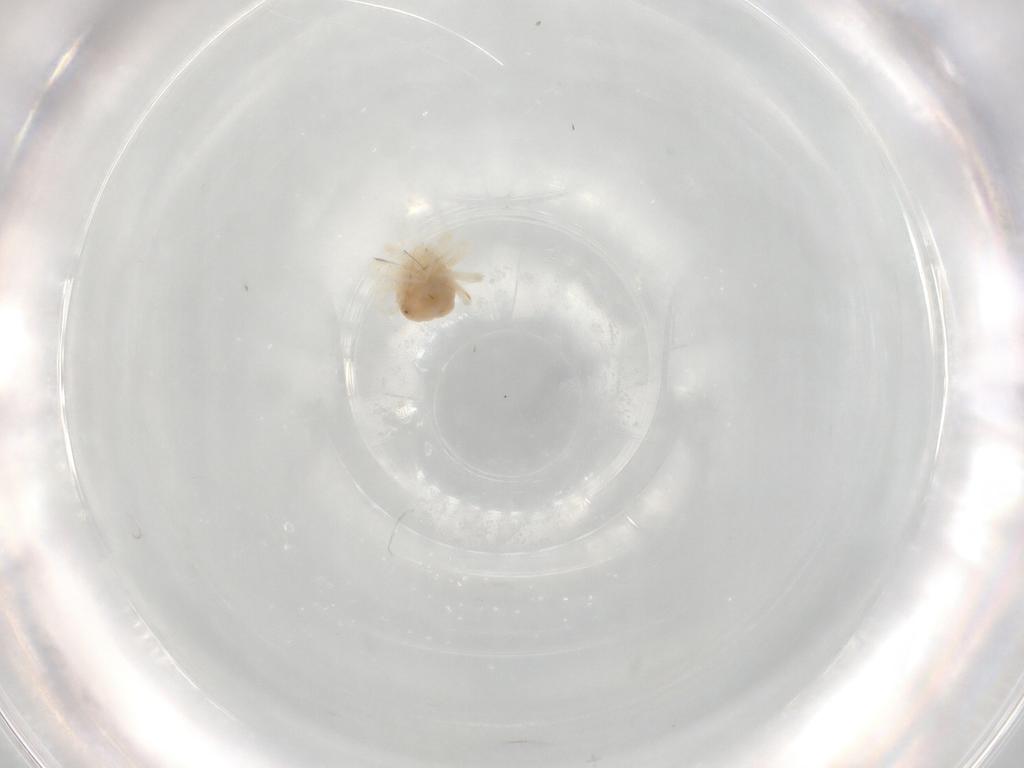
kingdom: Animalia
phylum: Arthropoda
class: Arachnida
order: Trombidiformes
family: Anystidae
